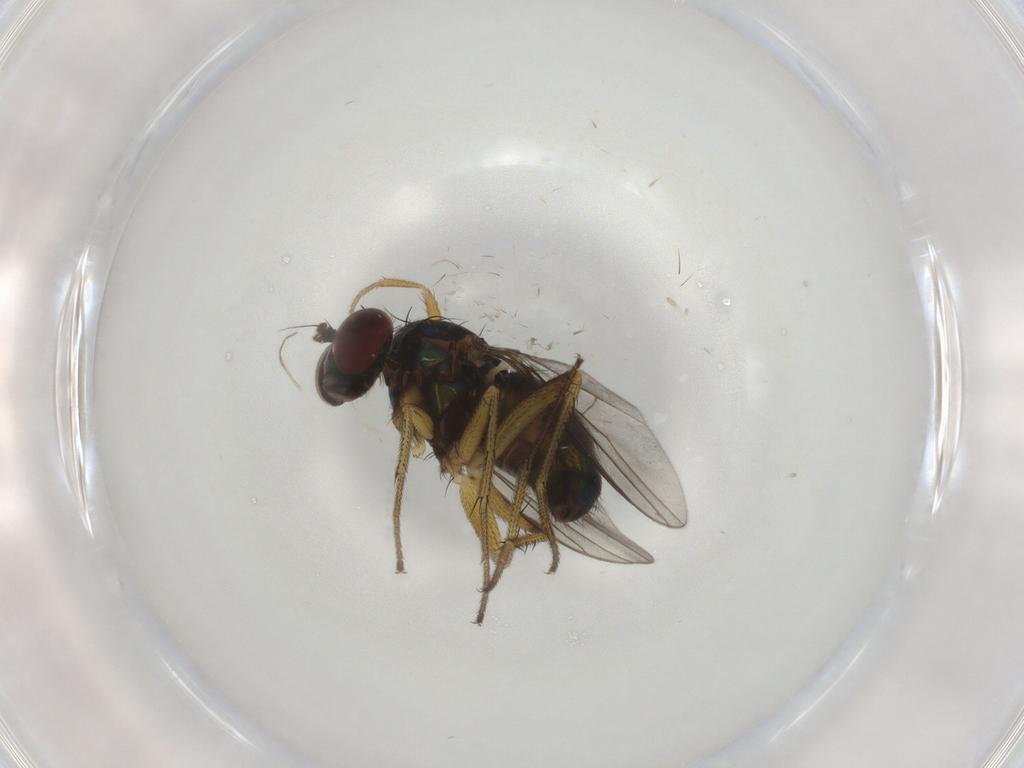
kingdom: Animalia
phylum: Arthropoda
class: Insecta
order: Diptera
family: Dolichopodidae
